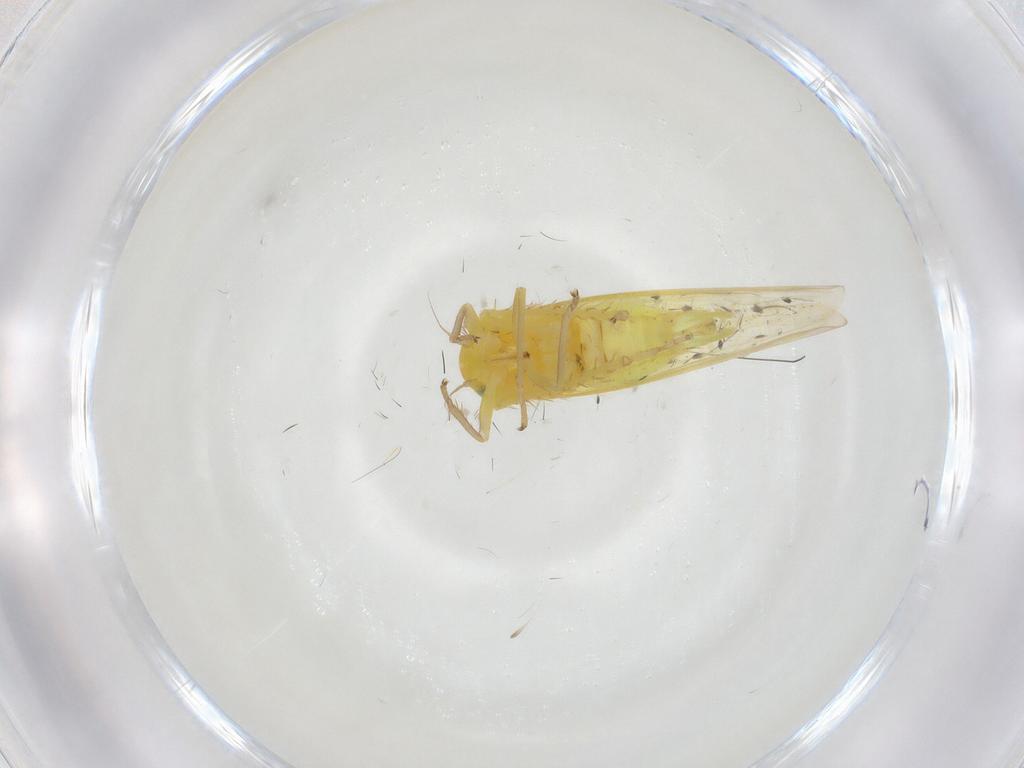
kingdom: Animalia
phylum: Arthropoda
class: Insecta
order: Hemiptera
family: Cicadellidae
